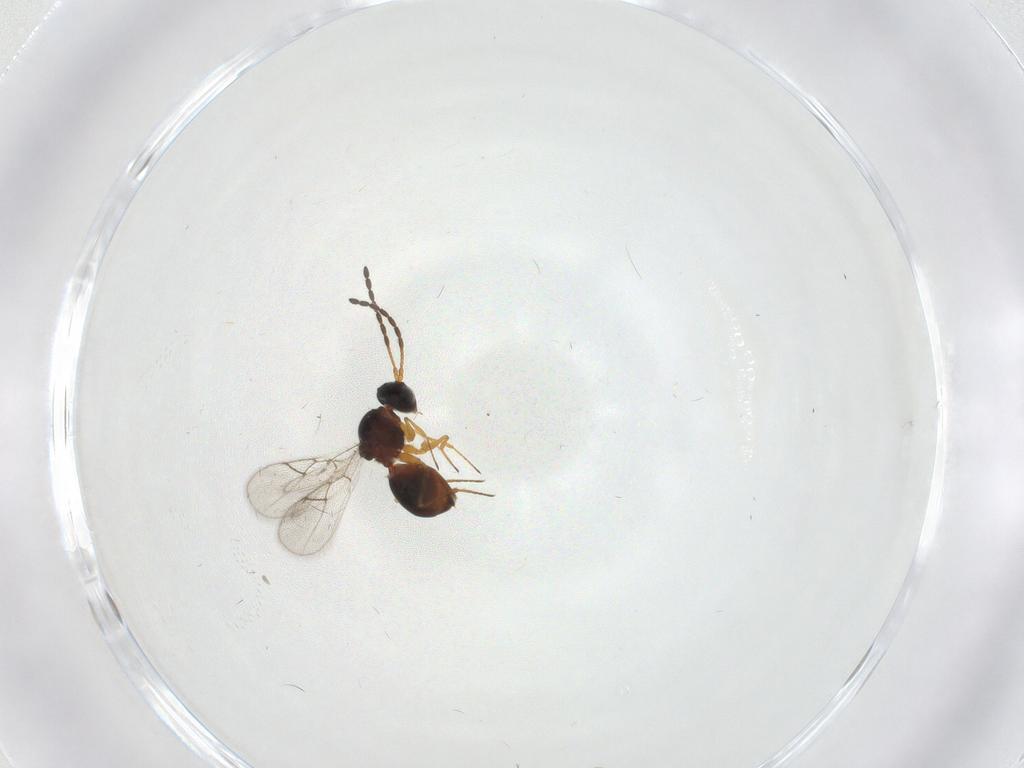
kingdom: Animalia
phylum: Arthropoda
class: Insecta
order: Hymenoptera
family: Figitidae
